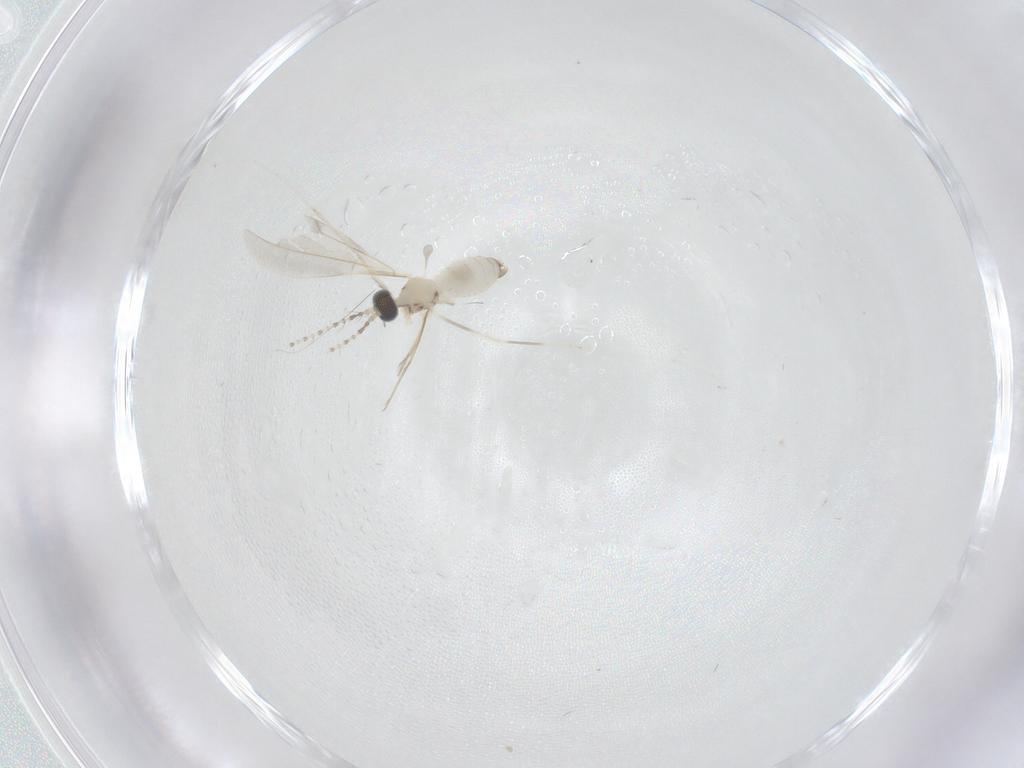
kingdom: Animalia
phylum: Arthropoda
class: Insecta
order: Diptera
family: Cecidomyiidae
